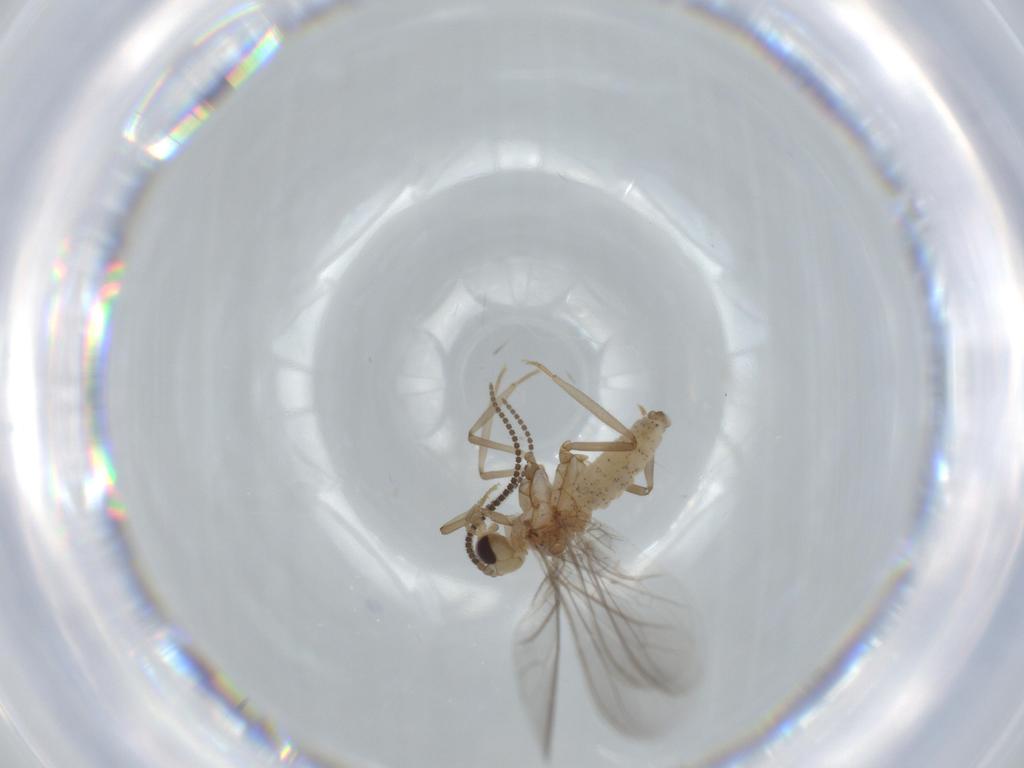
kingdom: Animalia
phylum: Arthropoda
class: Insecta
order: Neuroptera
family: Coniopterygidae
